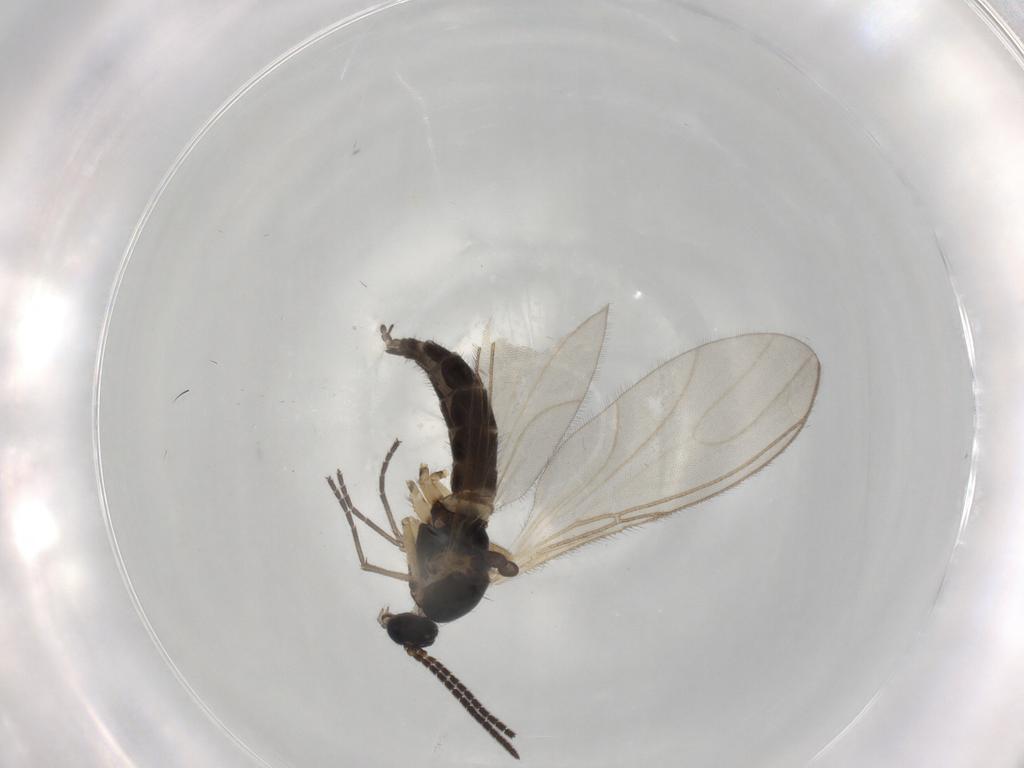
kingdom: Animalia
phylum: Arthropoda
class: Insecta
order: Diptera
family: Sciaridae
